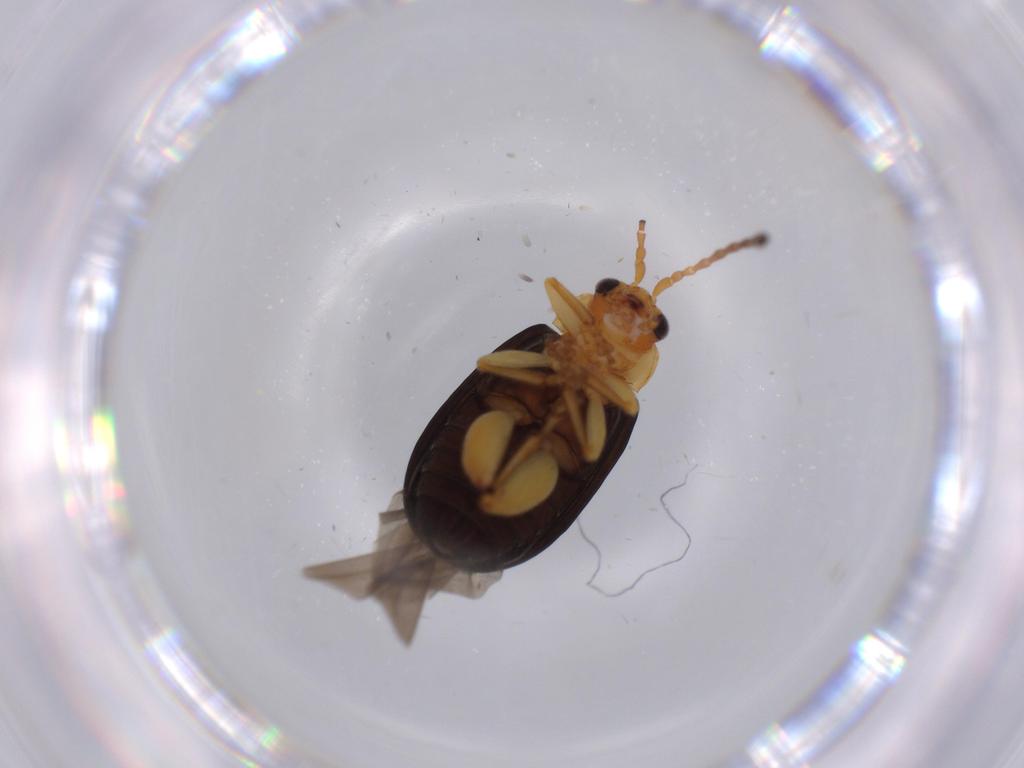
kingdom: Animalia
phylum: Arthropoda
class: Insecta
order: Coleoptera
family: Chrysomelidae
